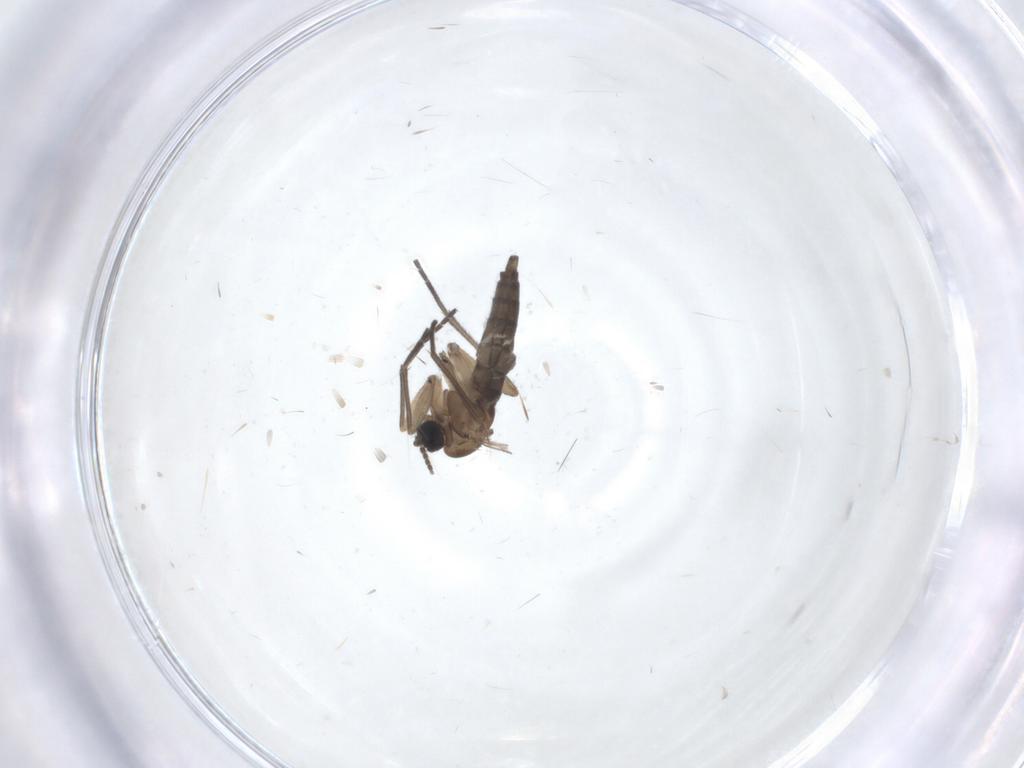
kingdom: Animalia
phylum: Arthropoda
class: Insecta
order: Diptera
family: Sciaridae
